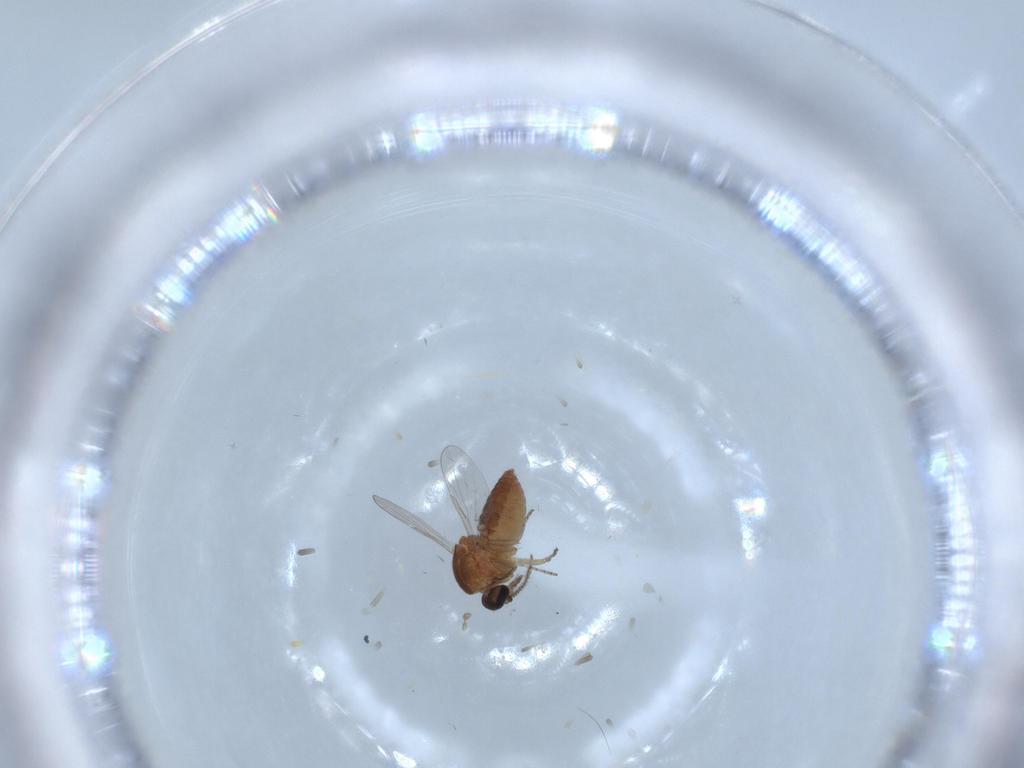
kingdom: Animalia
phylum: Arthropoda
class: Insecta
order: Diptera
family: Ceratopogonidae
